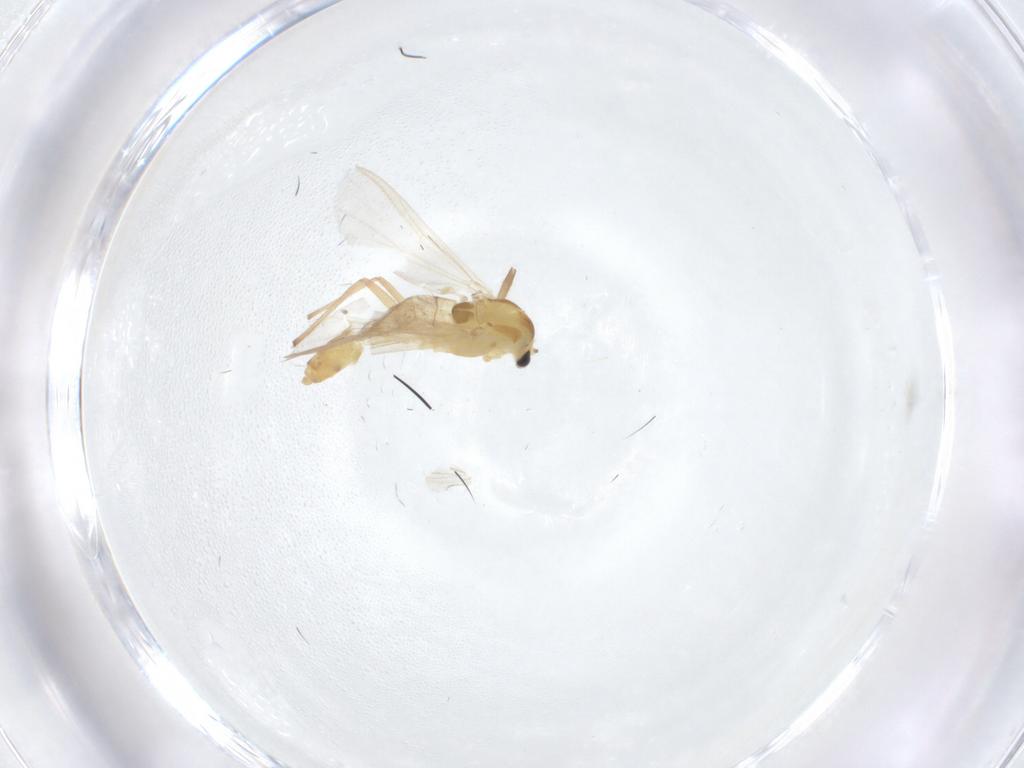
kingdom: Animalia
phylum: Arthropoda
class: Insecta
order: Diptera
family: Chironomidae
